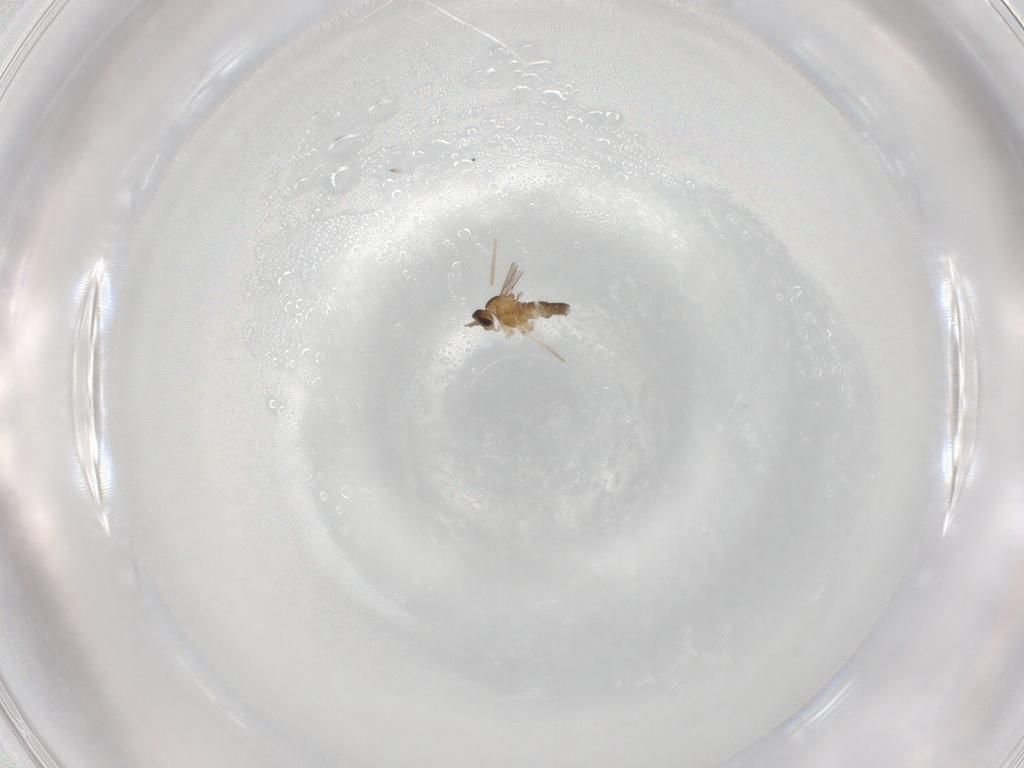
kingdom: Animalia
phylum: Arthropoda
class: Insecta
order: Diptera
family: Cecidomyiidae
